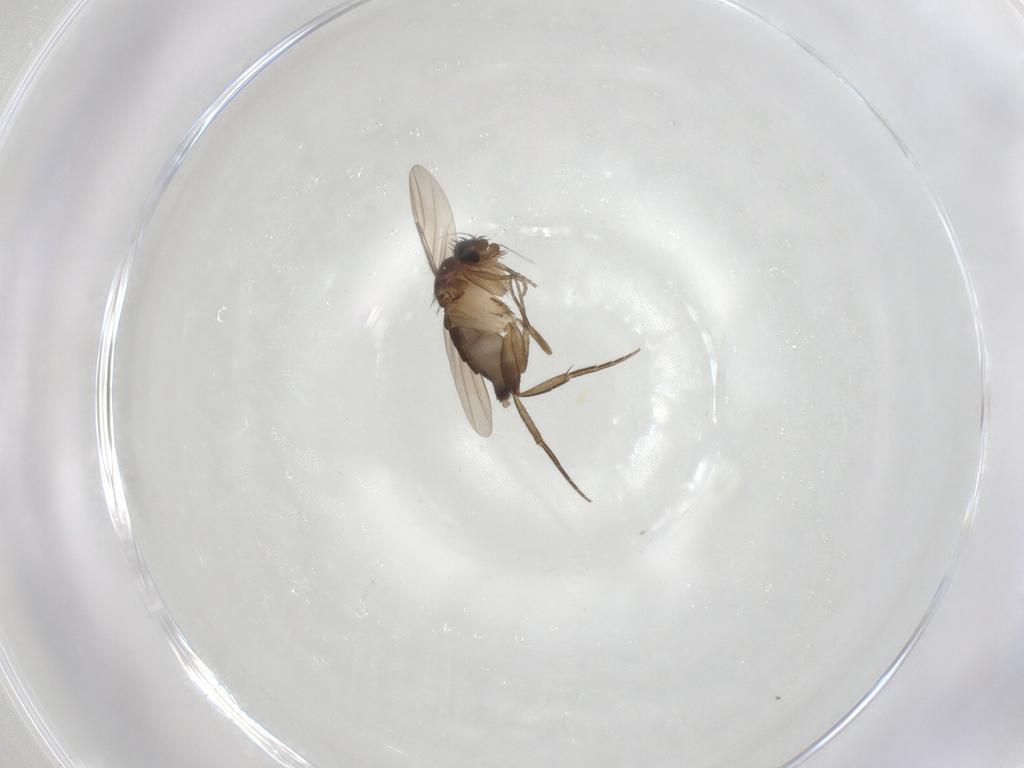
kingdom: Animalia
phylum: Arthropoda
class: Insecta
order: Diptera
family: Phoridae
